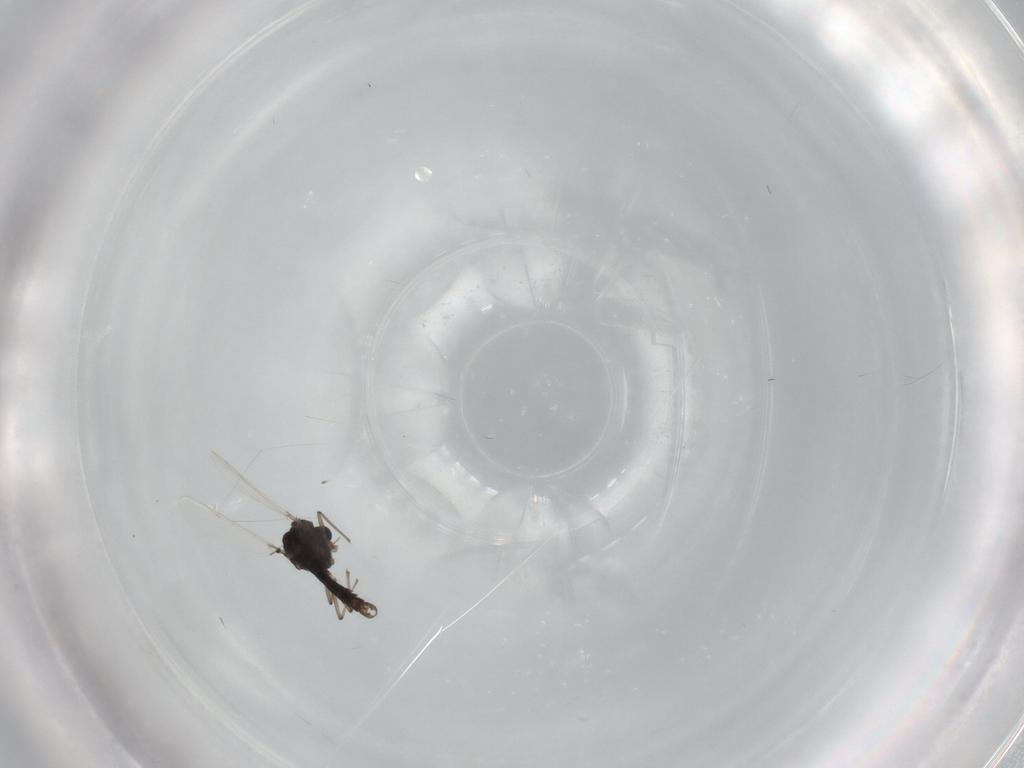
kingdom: Animalia
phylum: Arthropoda
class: Insecta
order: Diptera
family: Chironomidae
